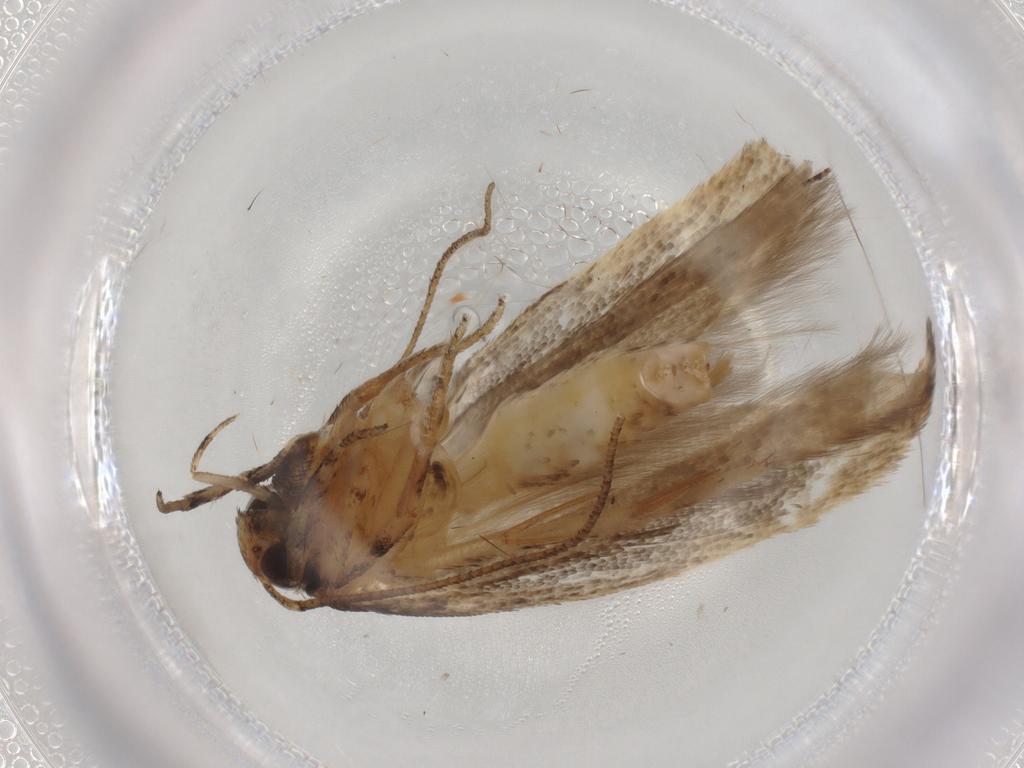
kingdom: Animalia
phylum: Arthropoda
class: Insecta
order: Lepidoptera
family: Gelechiidae
